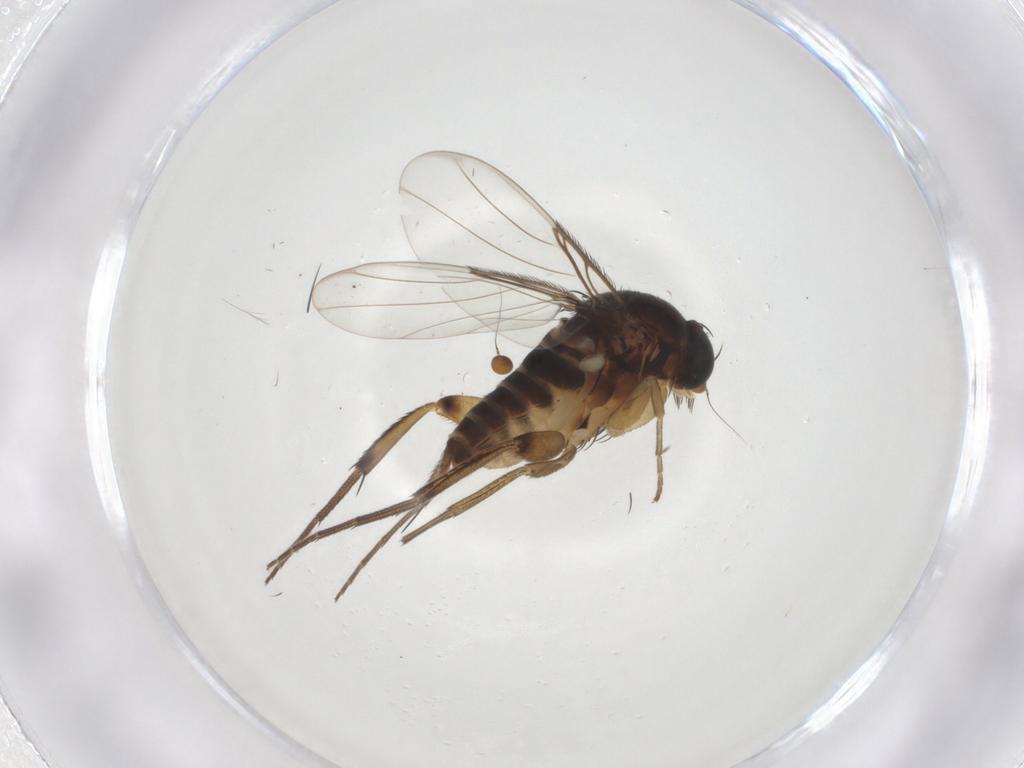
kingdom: Animalia
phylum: Arthropoda
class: Insecta
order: Diptera
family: Phoridae
